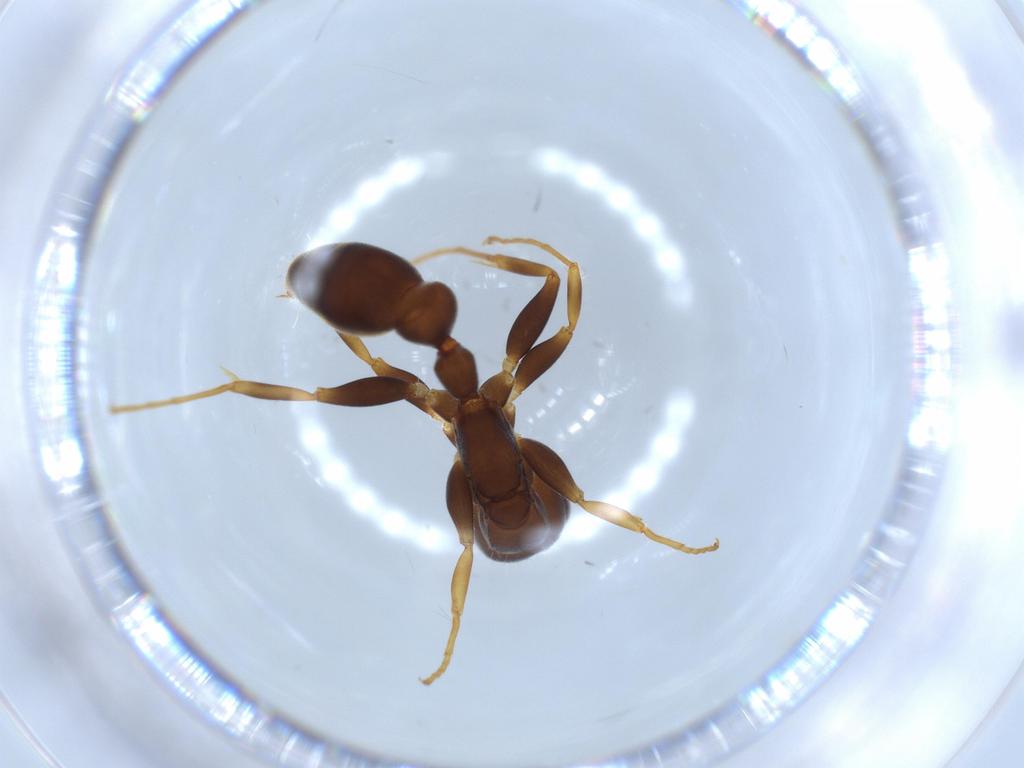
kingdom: Animalia
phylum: Arthropoda
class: Insecta
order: Hymenoptera
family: Formicidae
